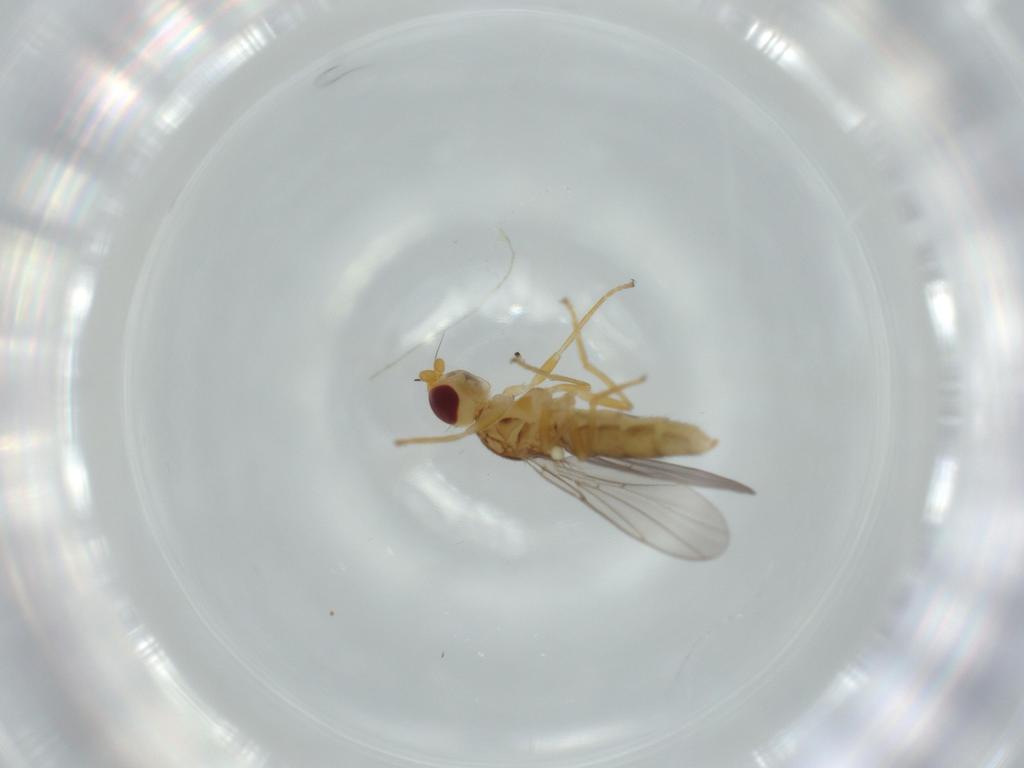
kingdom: Animalia
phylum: Arthropoda
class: Insecta
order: Diptera
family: Chloropidae
